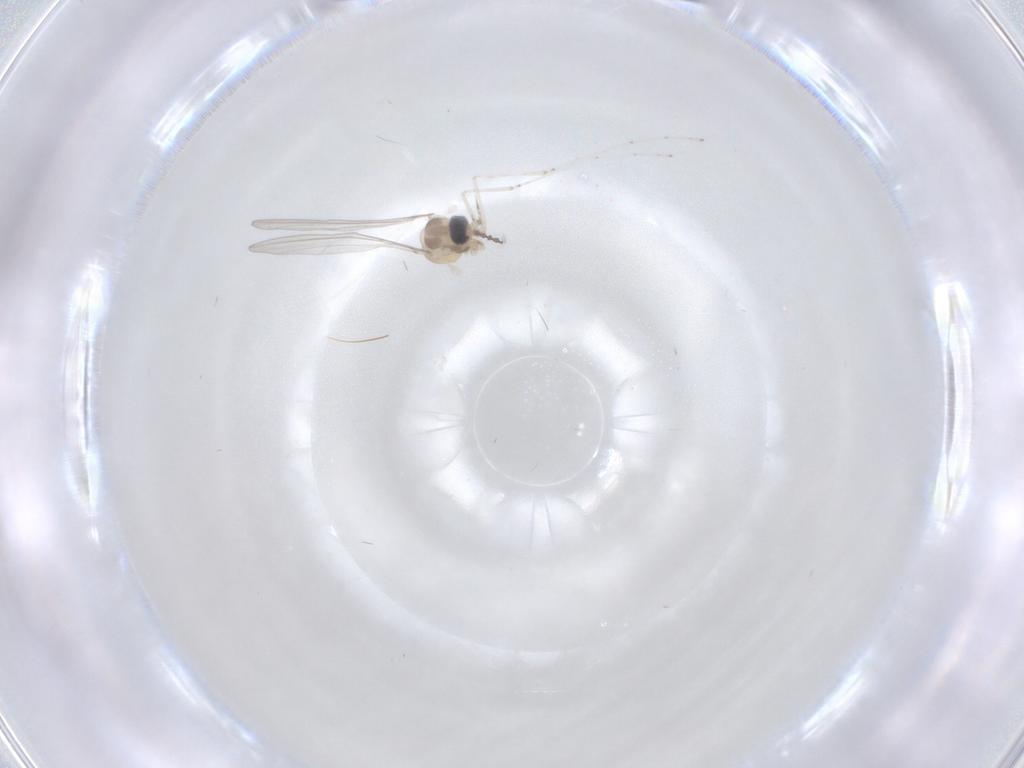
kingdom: Animalia
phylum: Arthropoda
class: Insecta
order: Diptera
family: Cecidomyiidae
